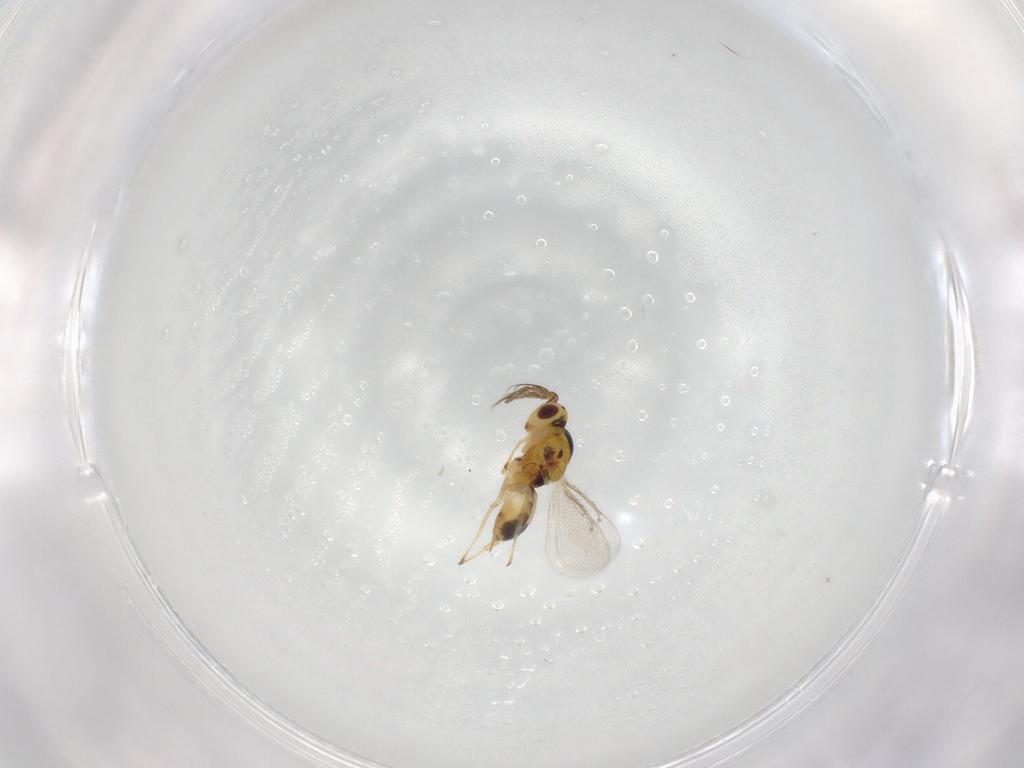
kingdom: Animalia
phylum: Arthropoda
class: Insecta
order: Hymenoptera
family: Eulophidae
